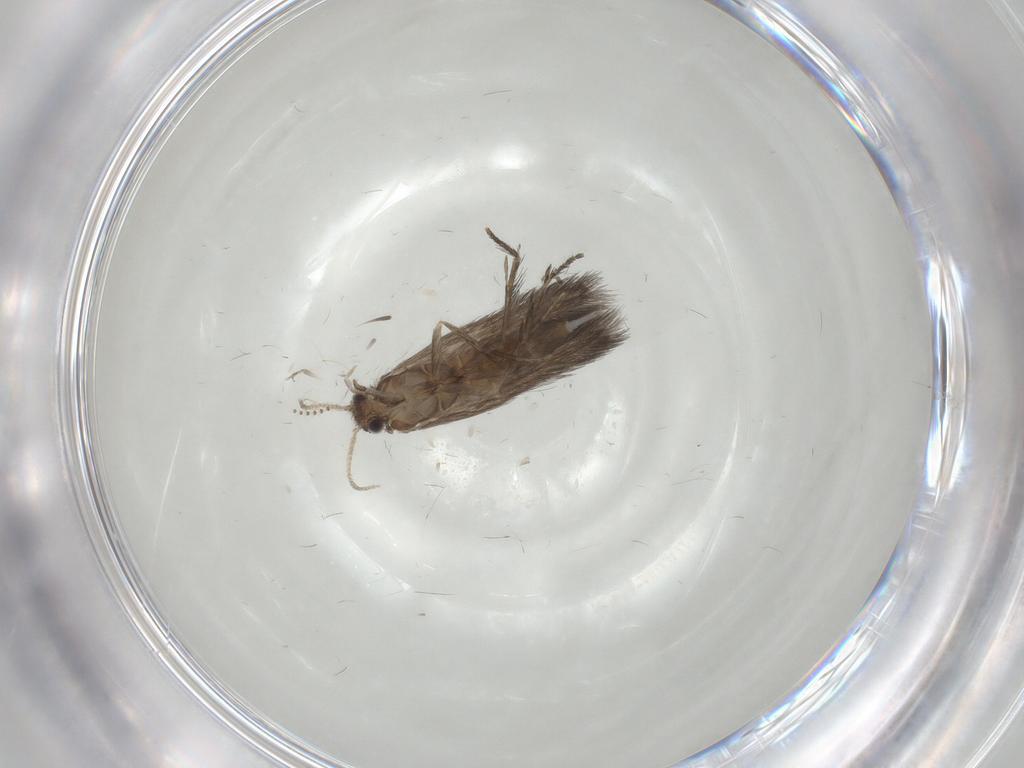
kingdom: Animalia
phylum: Arthropoda
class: Insecta
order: Trichoptera
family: Hydroptilidae
